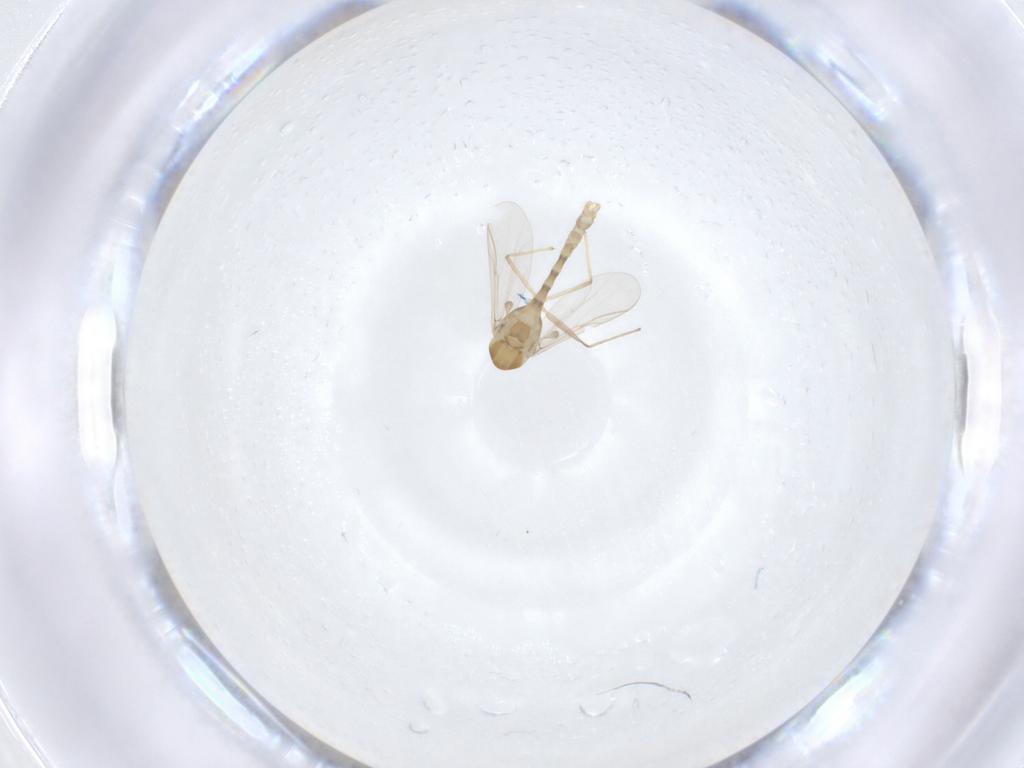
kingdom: Animalia
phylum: Arthropoda
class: Insecta
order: Diptera
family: Chironomidae
